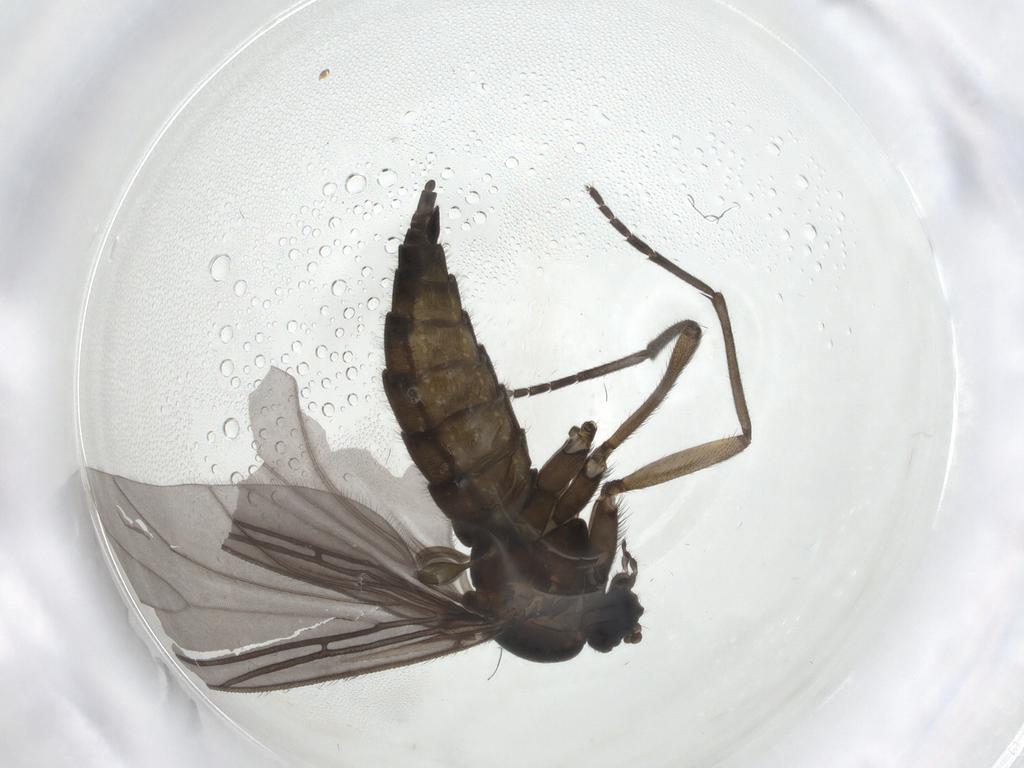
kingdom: Animalia
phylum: Arthropoda
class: Insecta
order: Diptera
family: Sciaridae
